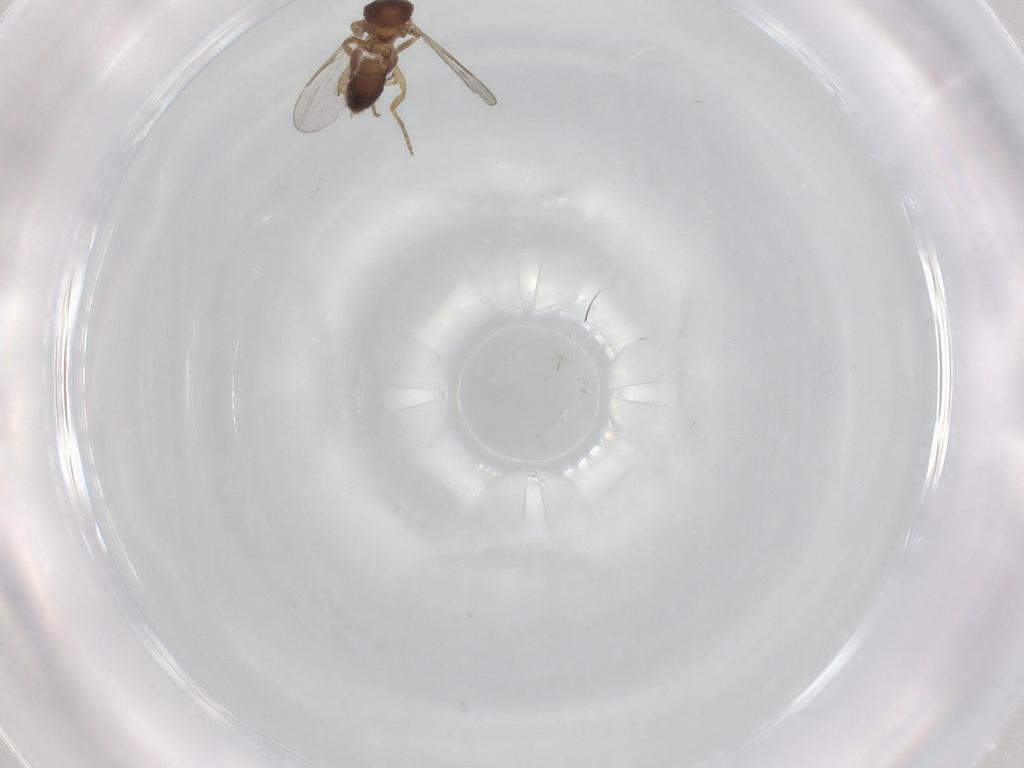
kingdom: Animalia
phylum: Arthropoda
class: Insecta
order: Diptera
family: Ceratopogonidae
